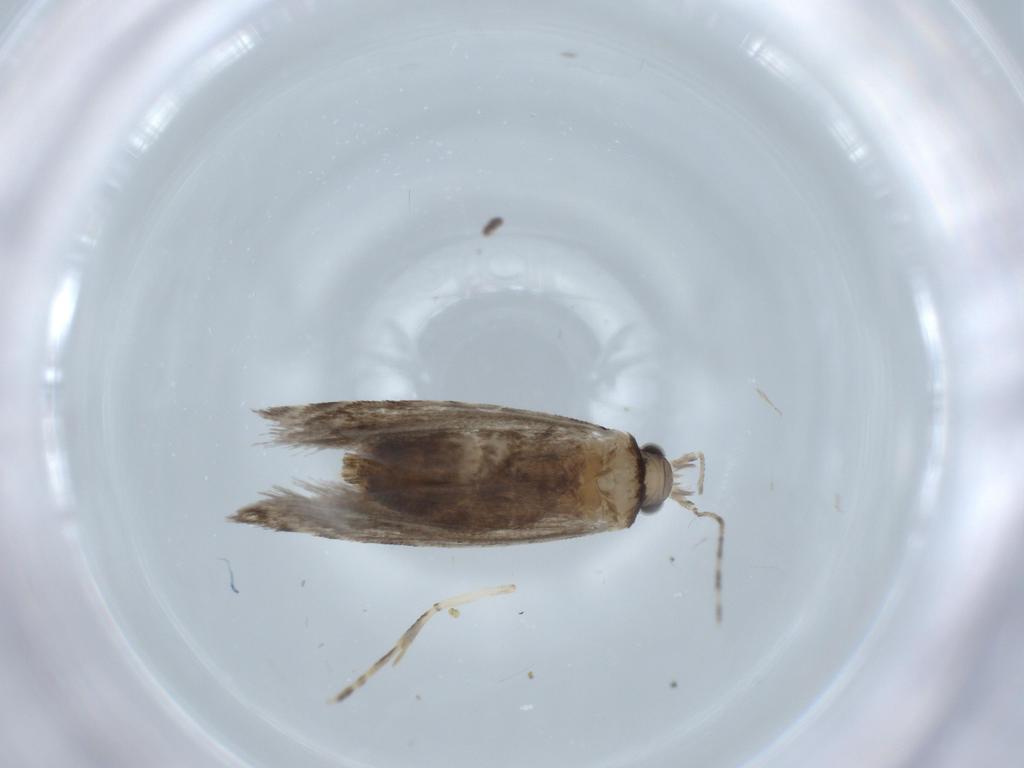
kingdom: Animalia
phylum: Arthropoda
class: Insecta
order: Lepidoptera
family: Tineidae
